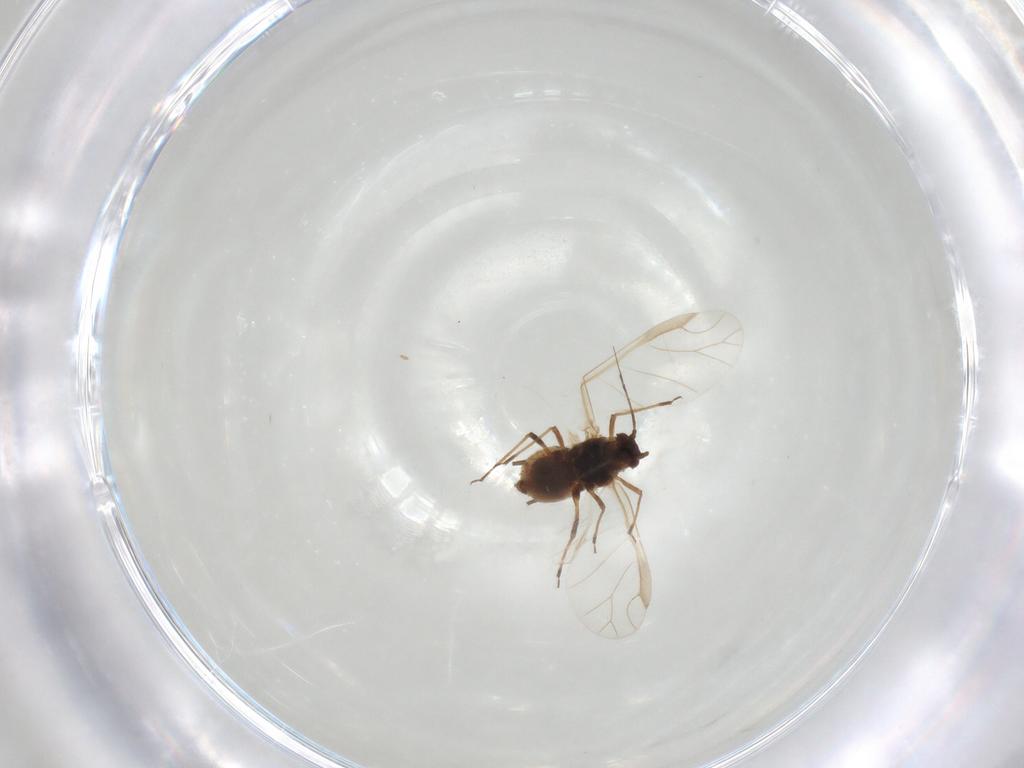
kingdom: Animalia
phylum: Arthropoda
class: Insecta
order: Hemiptera
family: Aphididae
